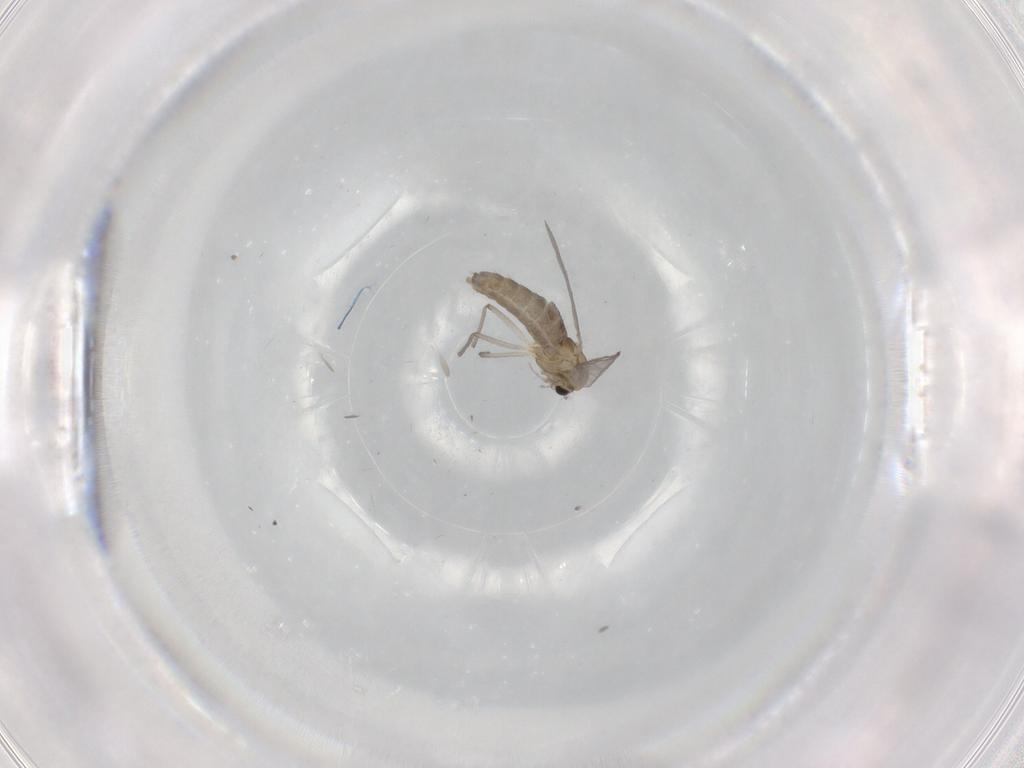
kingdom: Animalia
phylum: Arthropoda
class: Insecta
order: Diptera
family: Chironomidae
